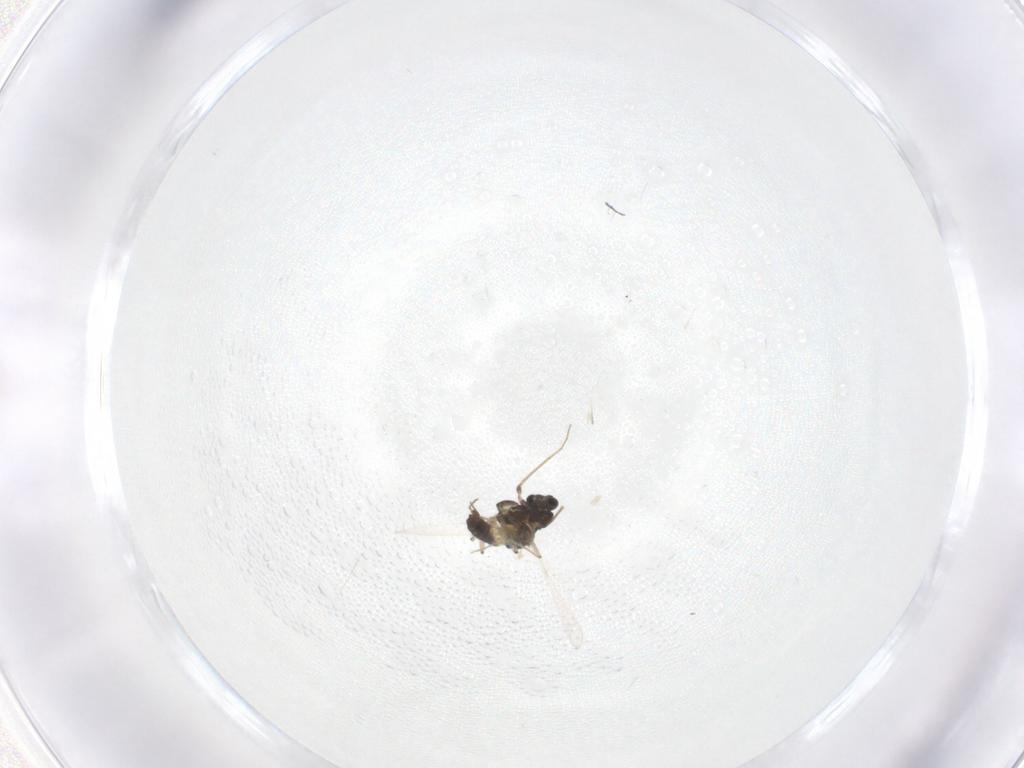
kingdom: Animalia
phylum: Arthropoda
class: Insecta
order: Diptera
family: Chironomidae
